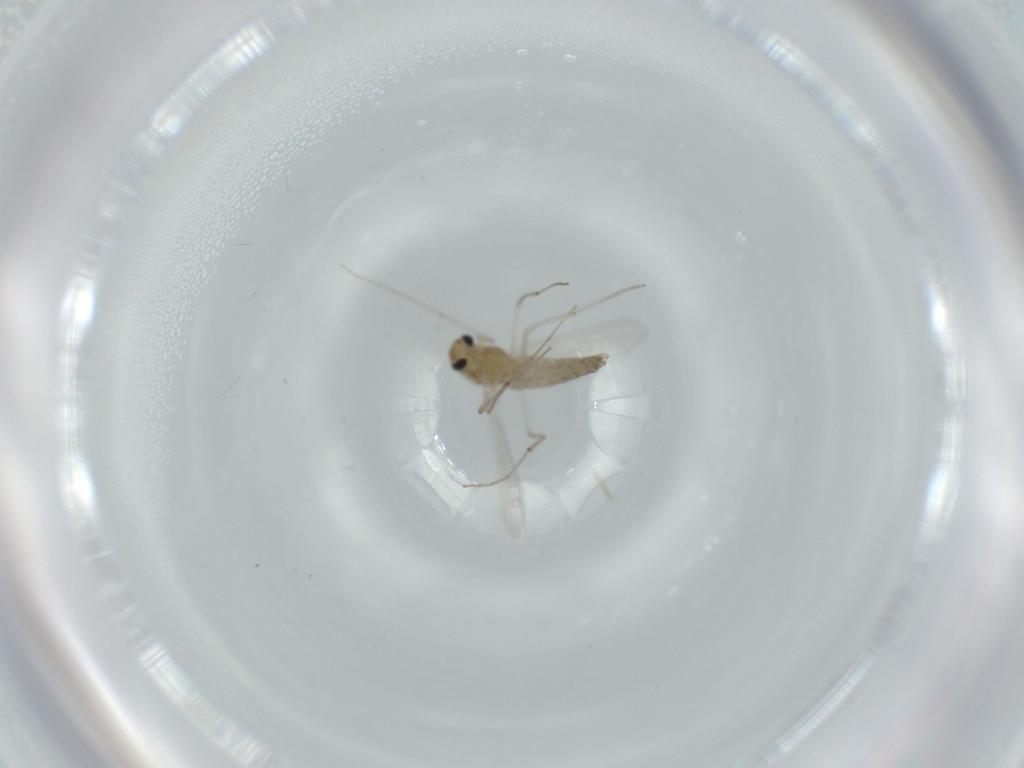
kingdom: Animalia
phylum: Arthropoda
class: Insecta
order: Diptera
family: Chironomidae
